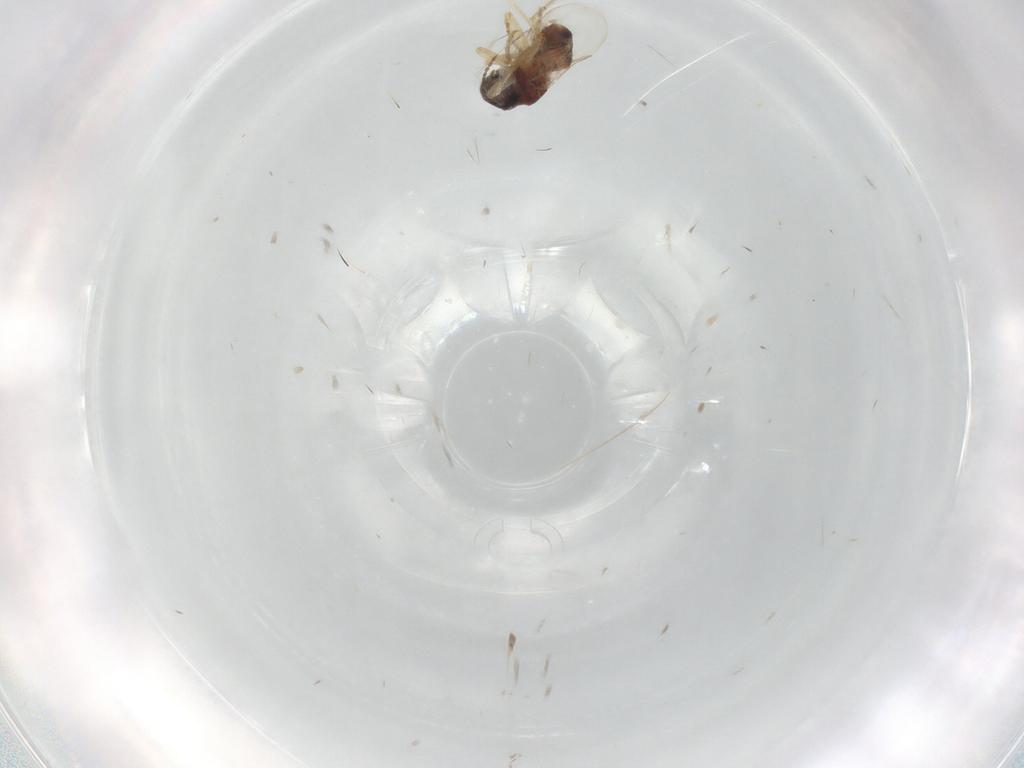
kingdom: Animalia
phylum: Arthropoda
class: Insecta
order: Diptera
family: Ceratopogonidae
